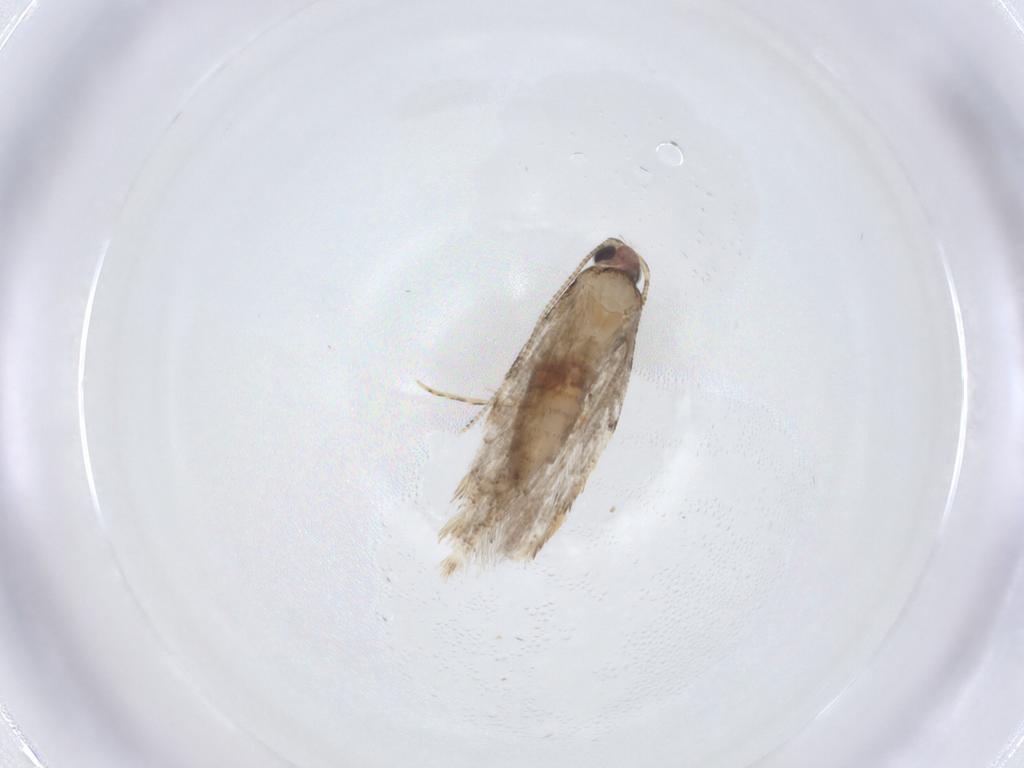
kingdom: Animalia
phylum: Arthropoda
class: Insecta
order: Lepidoptera
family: Tineidae
